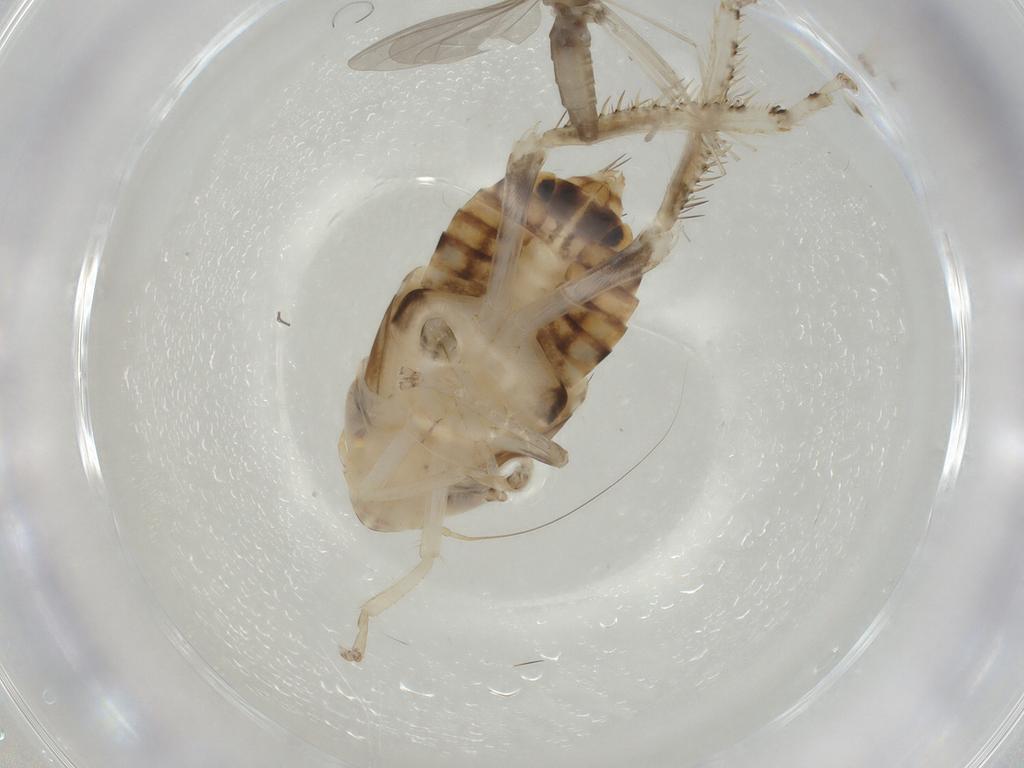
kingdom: Animalia
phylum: Arthropoda
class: Insecta
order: Diptera
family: Cecidomyiidae
